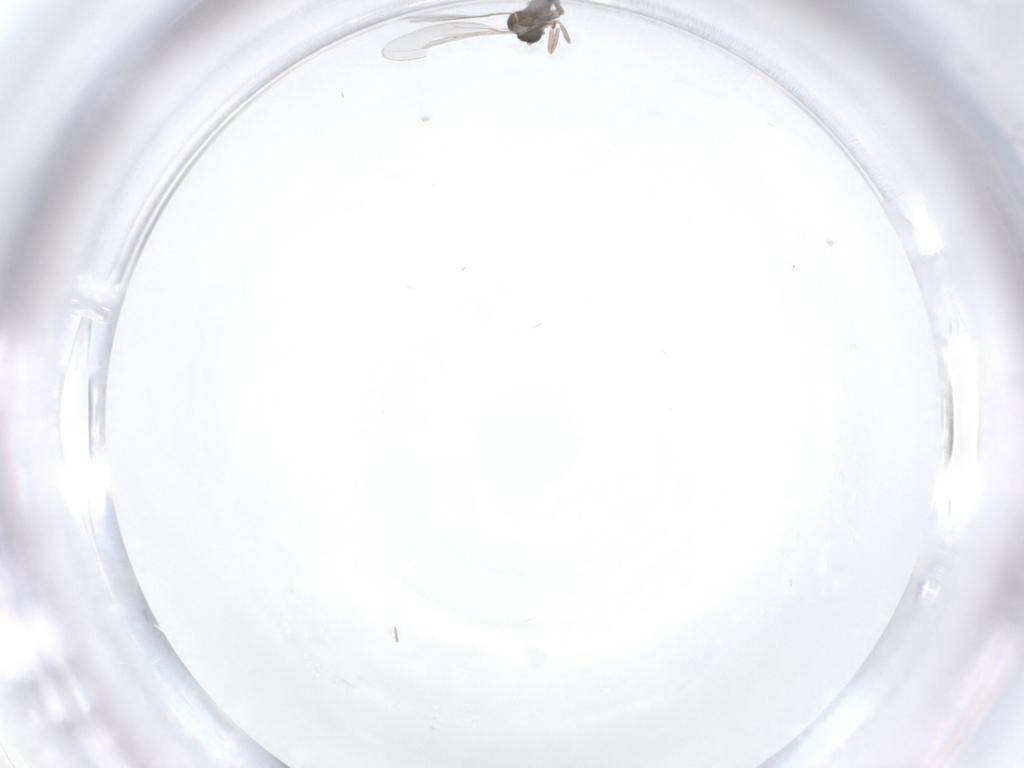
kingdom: Animalia
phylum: Arthropoda
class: Insecta
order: Diptera
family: Cecidomyiidae
